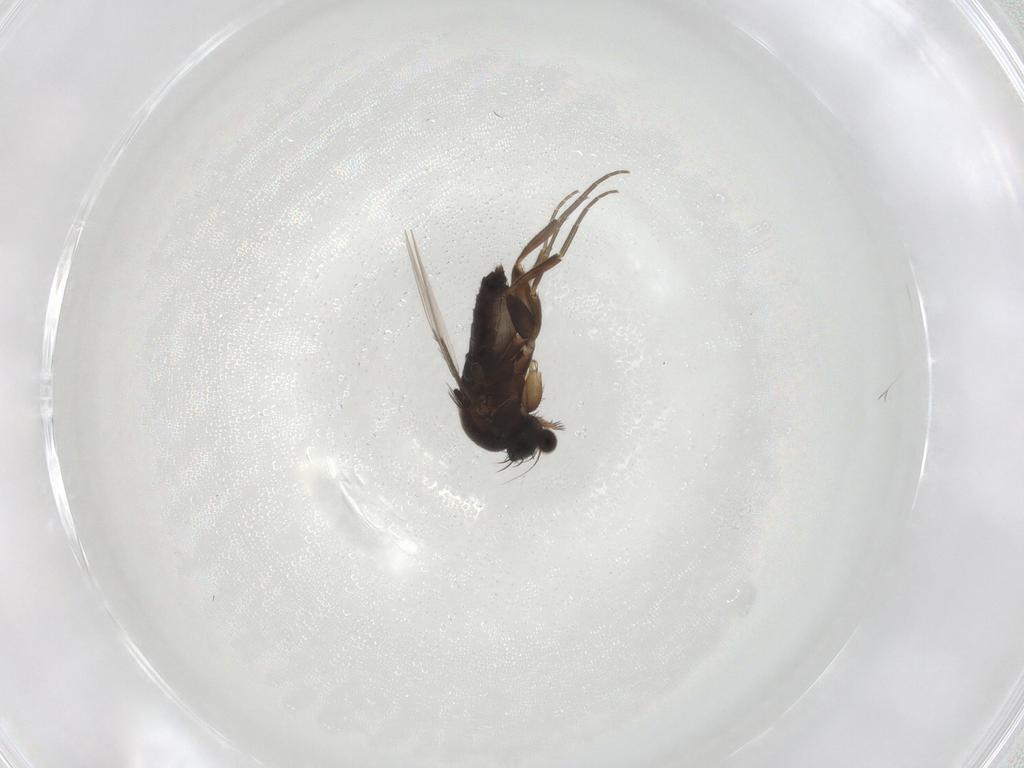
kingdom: Animalia
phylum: Arthropoda
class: Insecta
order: Diptera
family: Phoridae
